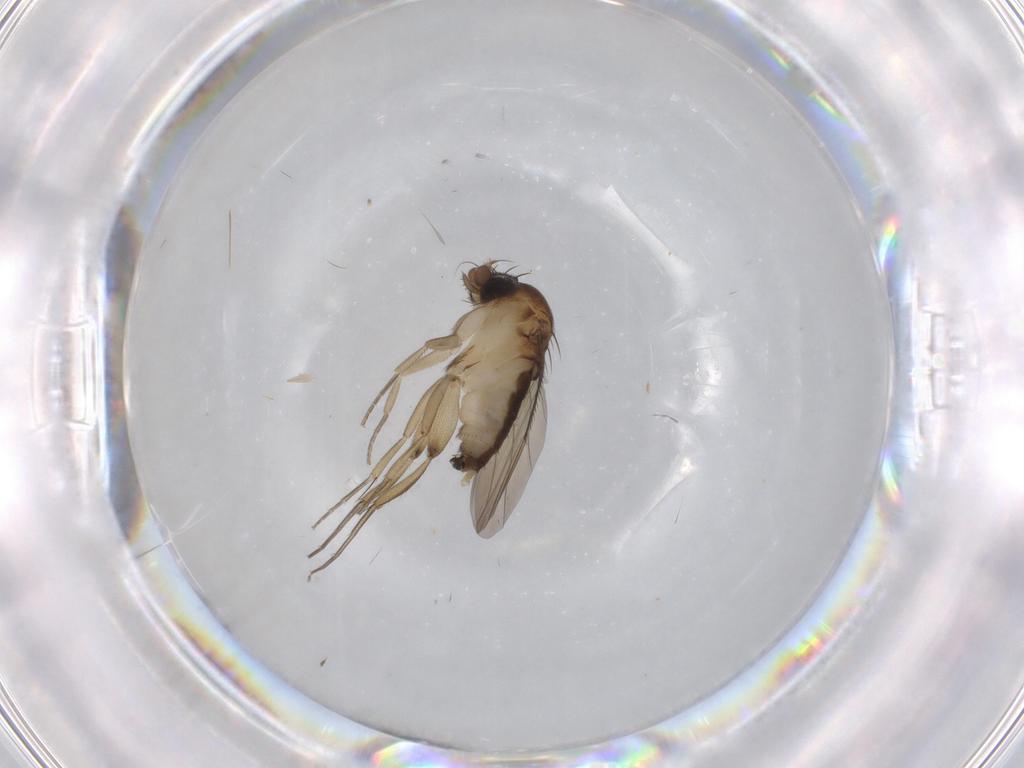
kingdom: Animalia
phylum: Arthropoda
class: Insecta
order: Diptera
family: Phoridae
